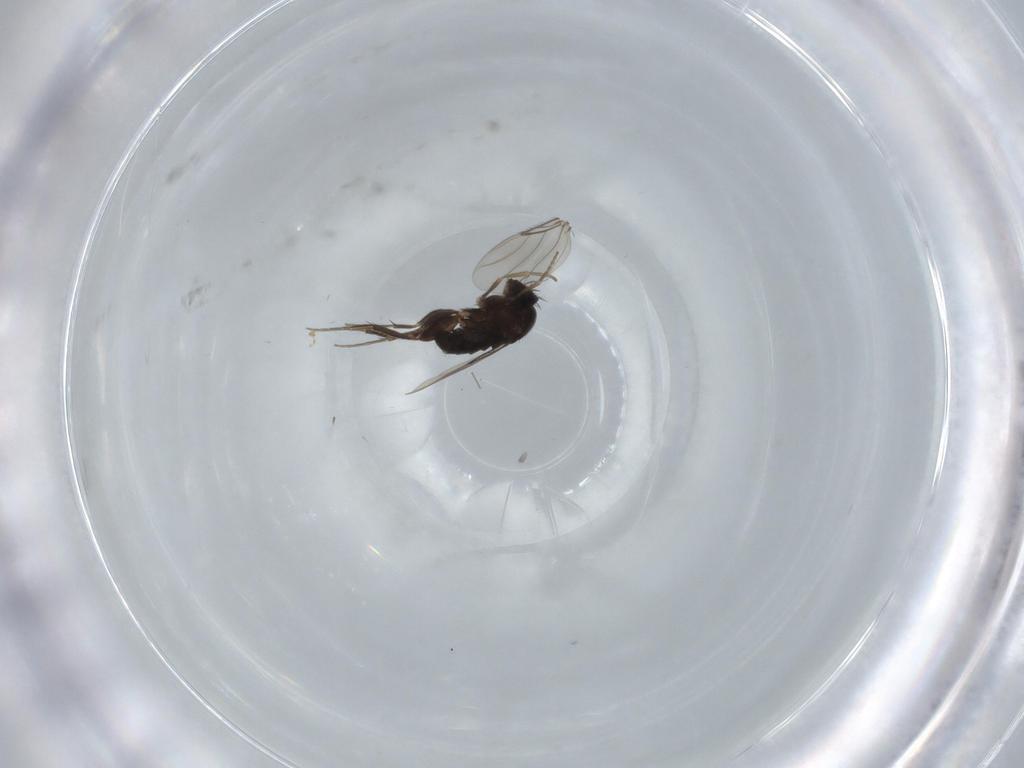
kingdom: Animalia
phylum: Arthropoda
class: Insecta
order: Diptera
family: Phoridae
